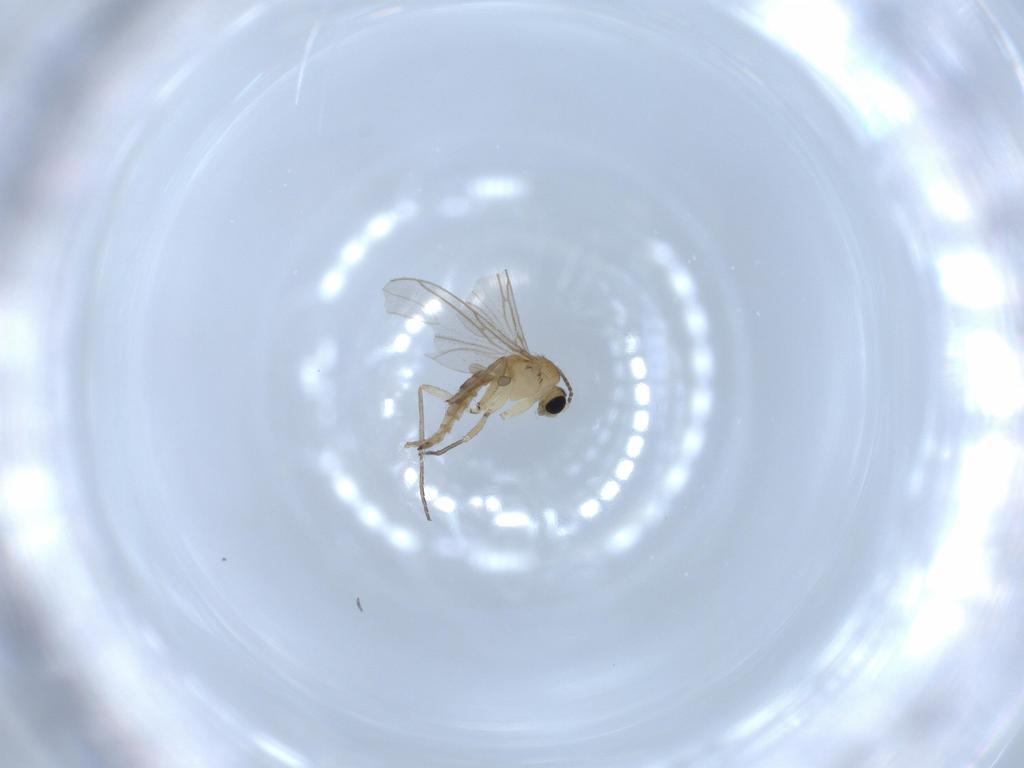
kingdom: Animalia
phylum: Arthropoda
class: Insecta
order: Diptera
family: Sciaridae
